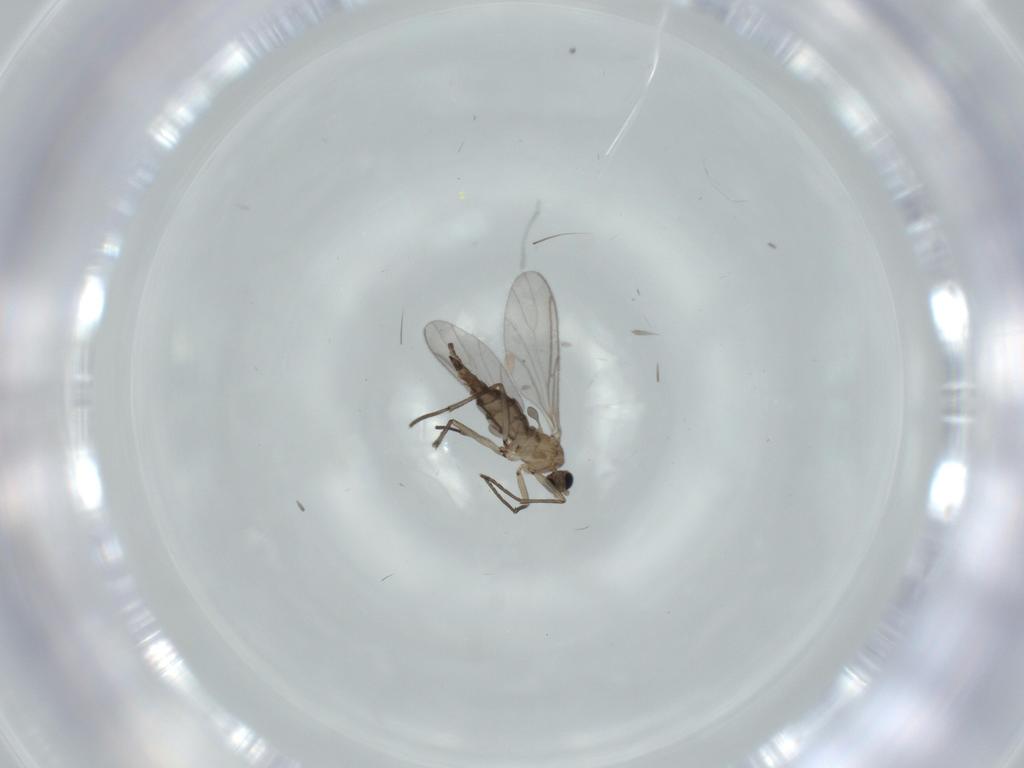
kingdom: Animalia
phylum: Arthropoda
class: Insecta
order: Diptera
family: Sciaridae
